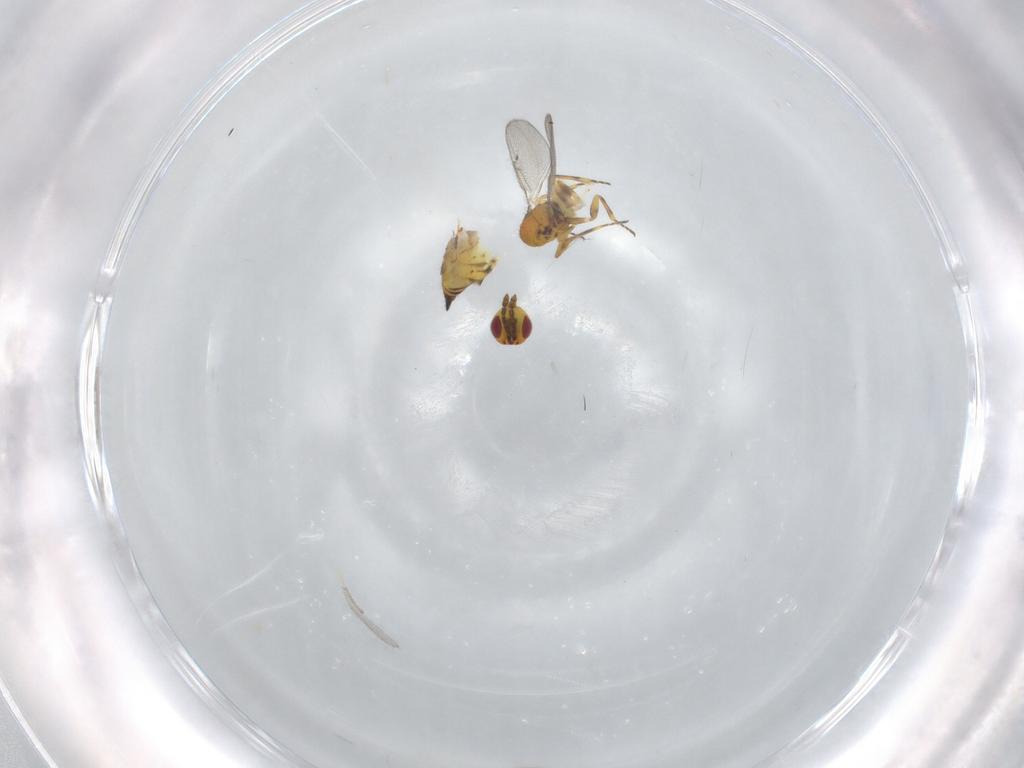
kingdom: Animalia
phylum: Arthropoda
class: Insecta
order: Hymenoptera
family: Eulophidae
